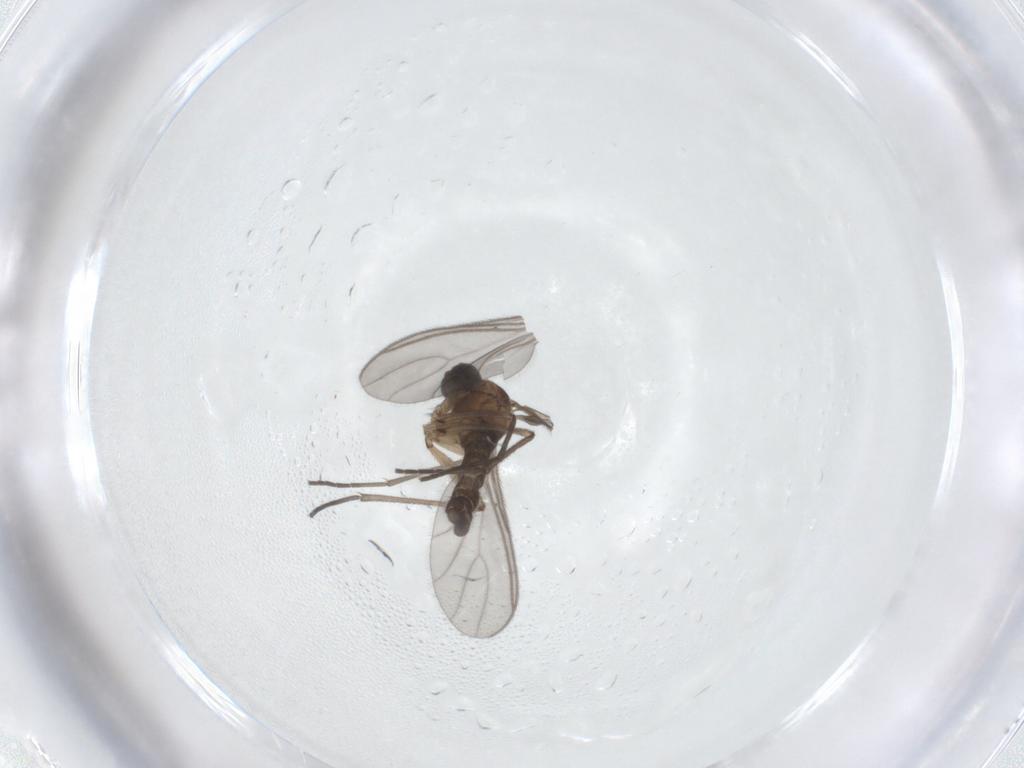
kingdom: Animalia
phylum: Arthropoda
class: Insecta
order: Diptera
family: Sciaridae
